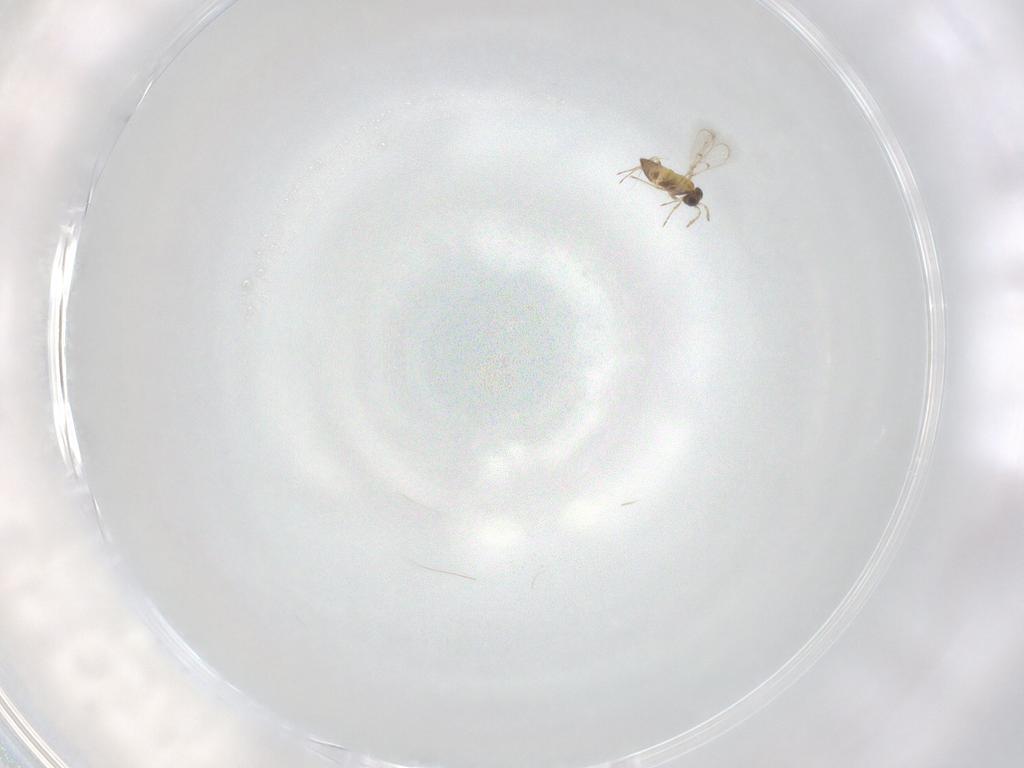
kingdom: Animalia
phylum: Arthropoda
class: Insecta
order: Hymenoptera
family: Trichogrammatidae
